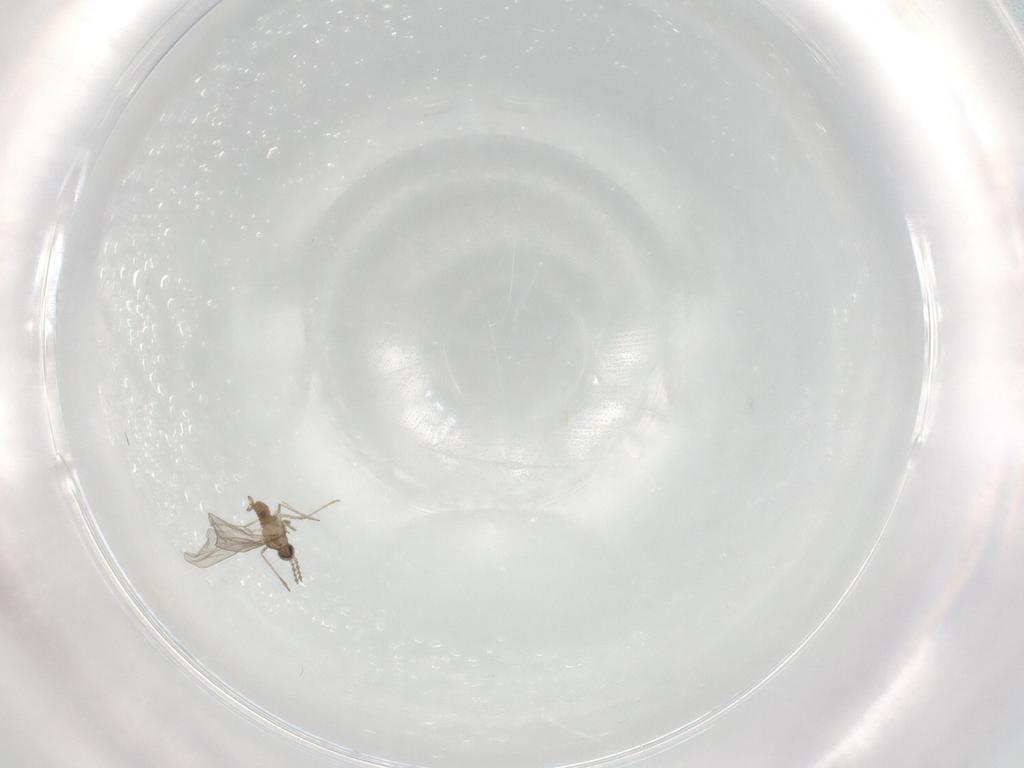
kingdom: Animalia
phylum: Arthropoda
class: Insecta
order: Diptera
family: Cecidomyiidae
